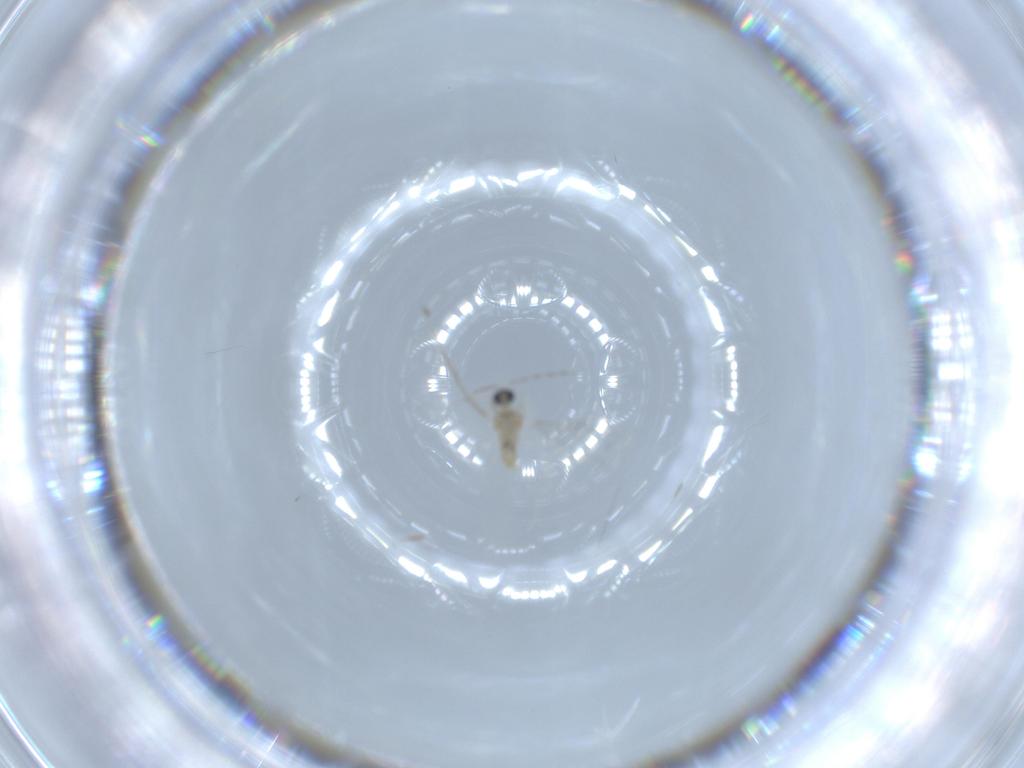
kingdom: Animalia
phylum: Arthropoda
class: Insecta
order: Diptera
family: Cecidomyiidae
